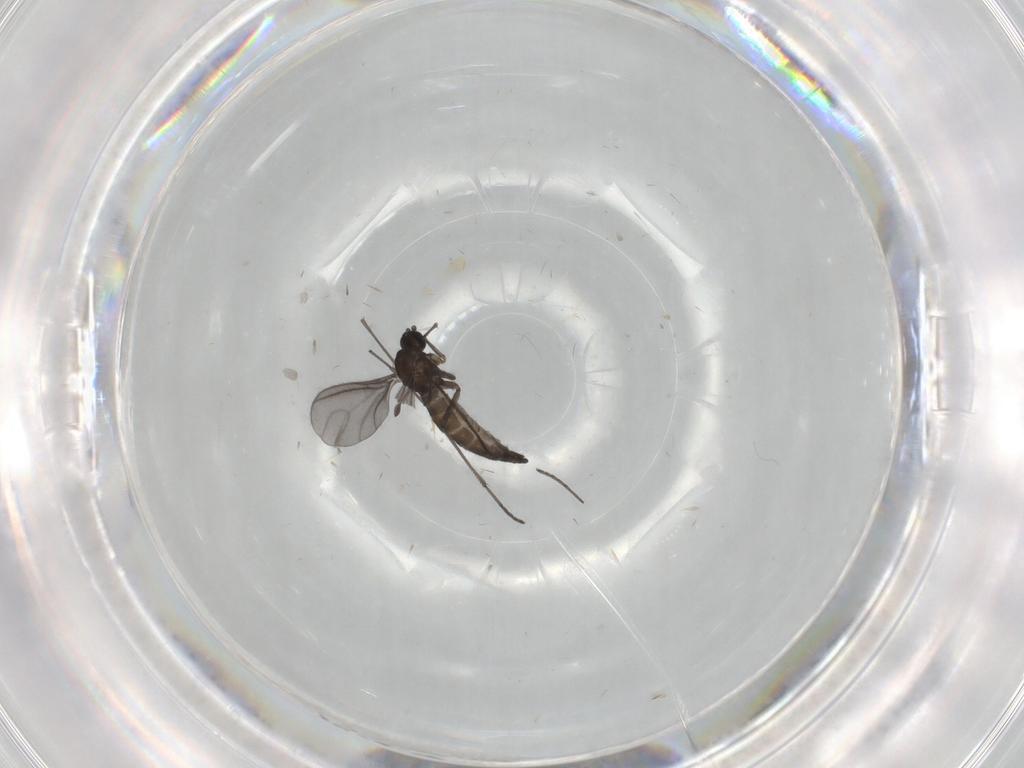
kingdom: Animalia
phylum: Arthropoda
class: Insecta
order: Diptera
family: Sciaridae
